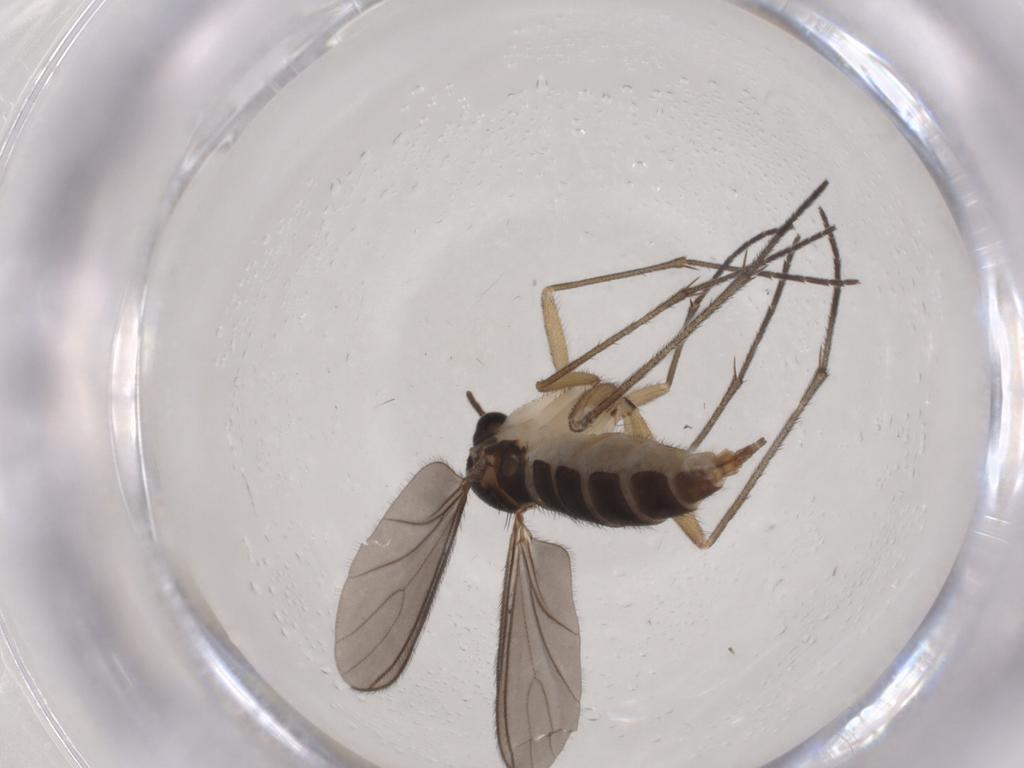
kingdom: Animalia
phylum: Arthropoda
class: Insecta
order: Diptera
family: Sciaridae
